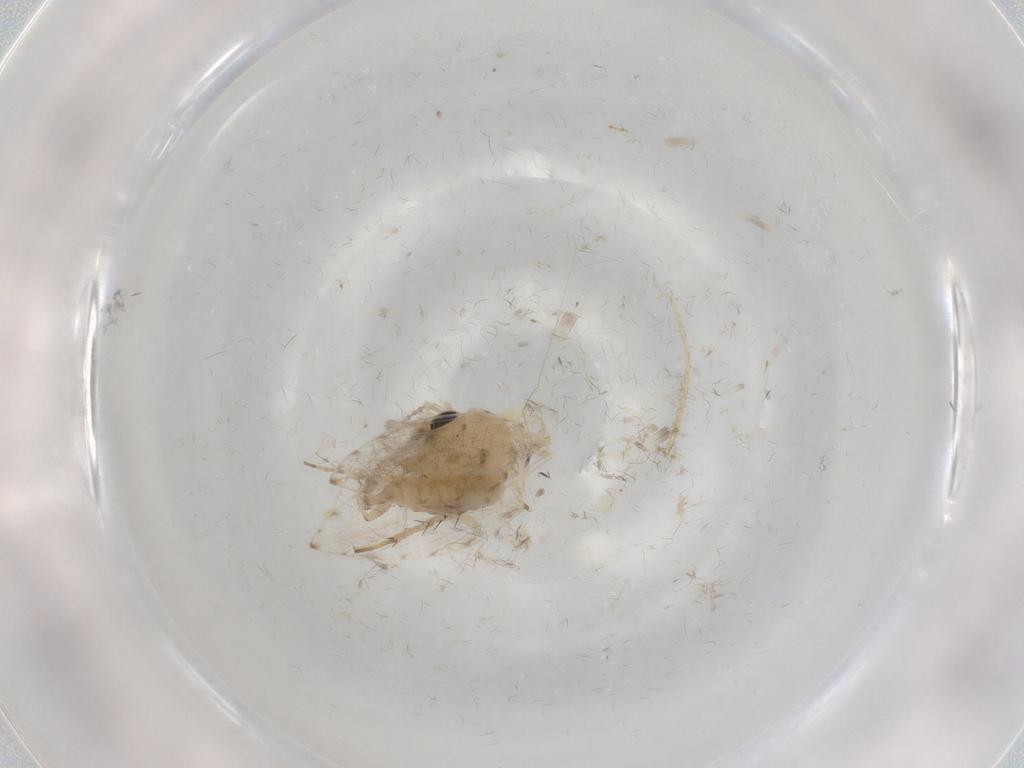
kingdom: Animalia
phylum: Arthropoda
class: Insecta
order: Diptera
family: Psychodidae
